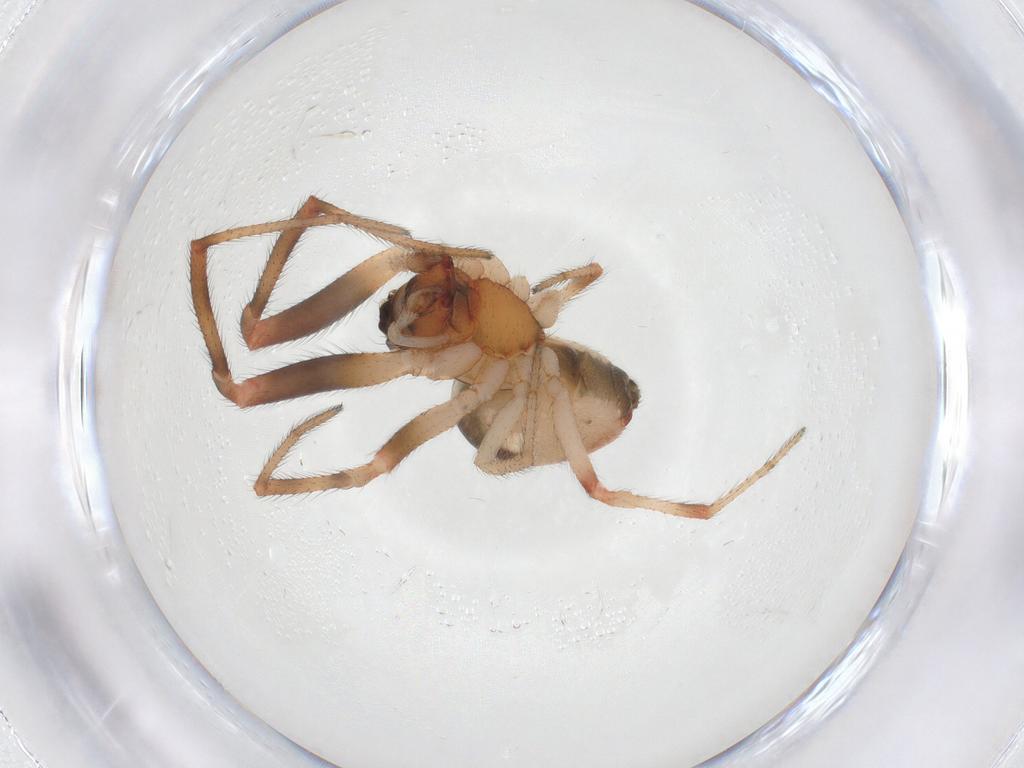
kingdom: Animalia
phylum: Arthropoda
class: Arachnida
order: Araneae
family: Theridiidae
